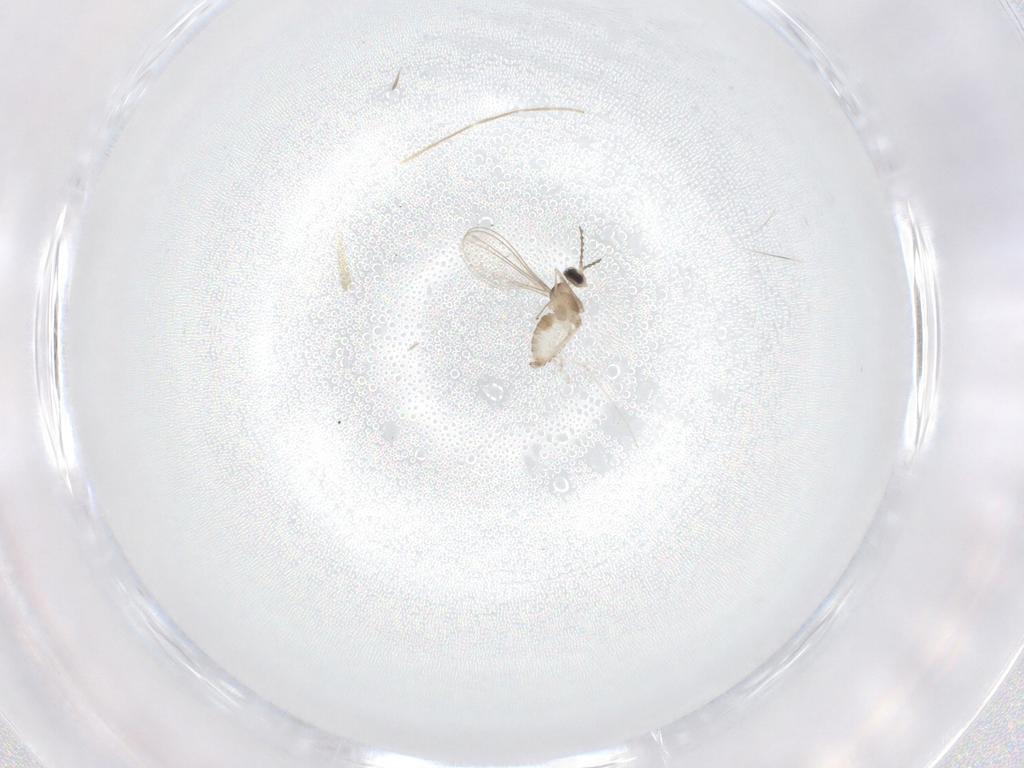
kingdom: Animalia
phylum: Arthropoda
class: Insecta
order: Diptera
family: Cecidomyiidae
